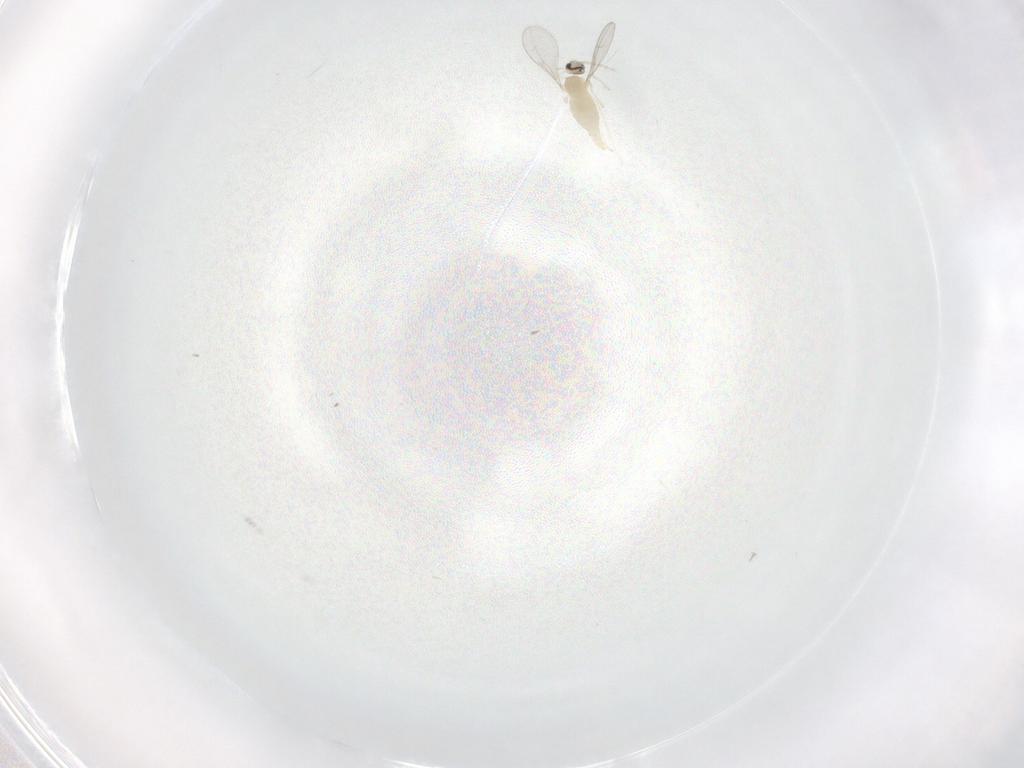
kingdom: Animalia
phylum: Arthropoda
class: Insecta
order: Diptera
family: Cecidomyiidae
